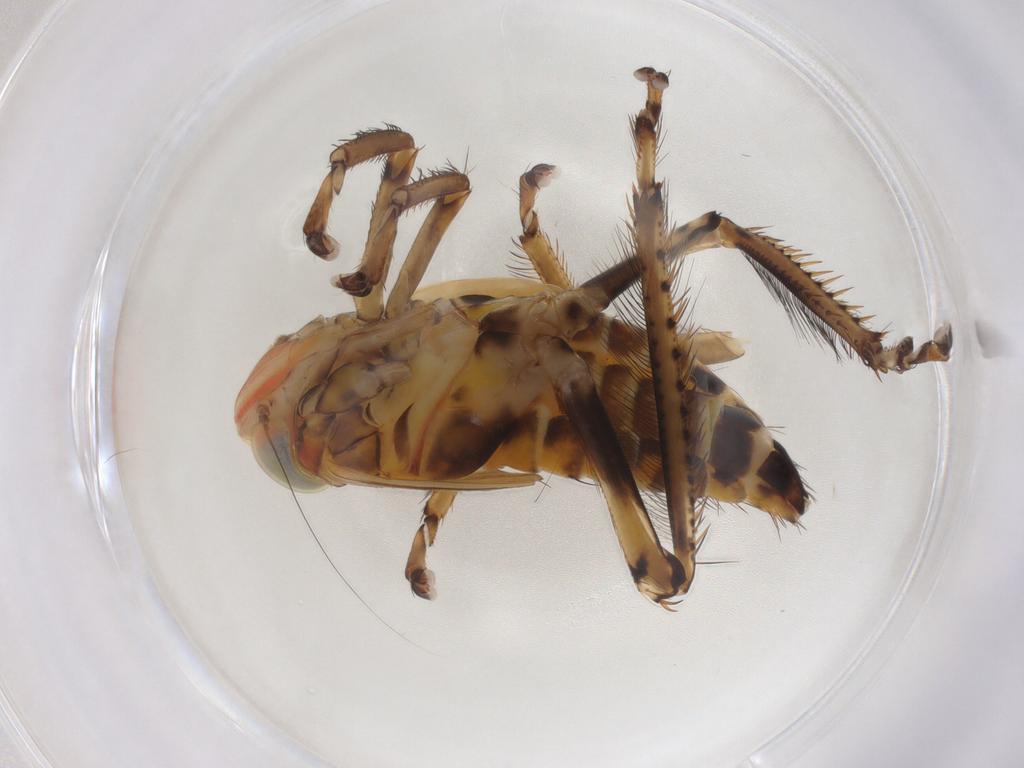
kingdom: Animalia
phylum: Arthropoda
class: Insecta
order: Hemiptera
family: Cicadellidae
